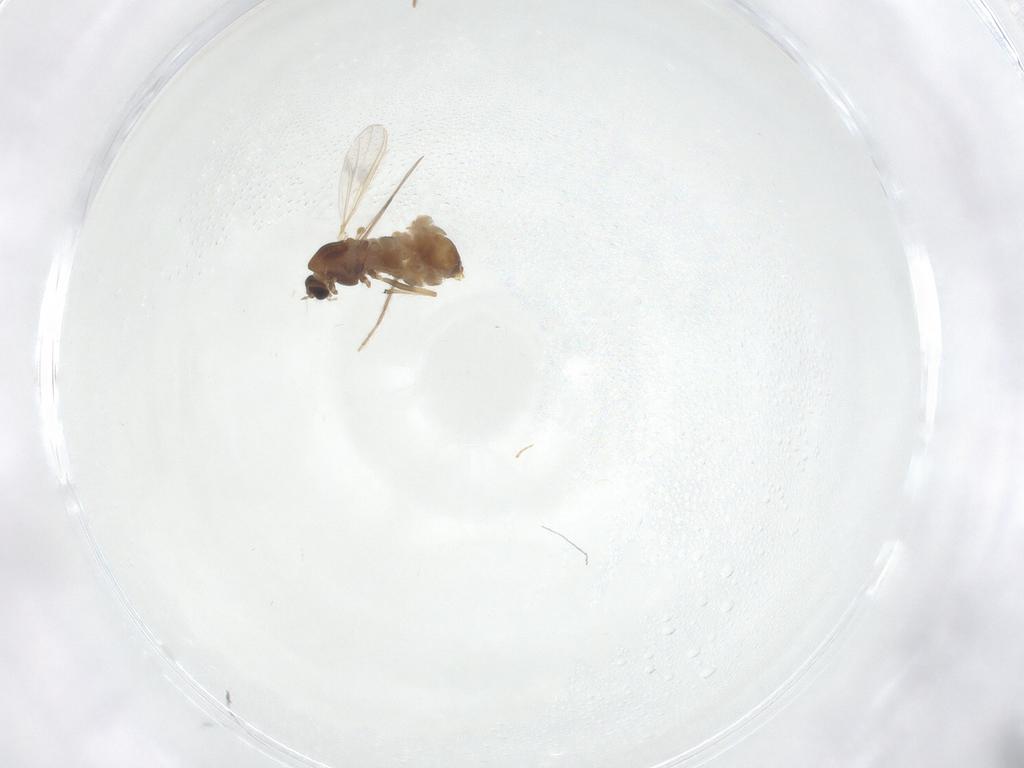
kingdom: Animalia
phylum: Arthropoda
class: Insecta
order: Diptera
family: Chironomidae
